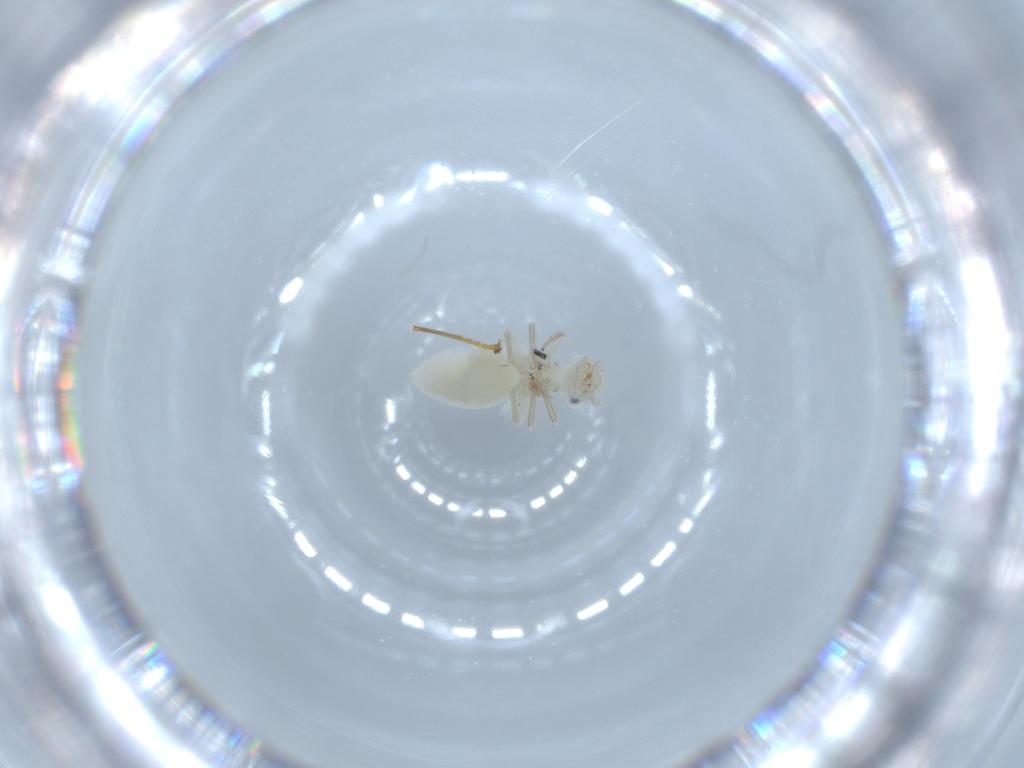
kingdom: Animalia
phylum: Arthropoda
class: Insecta
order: Psocodea
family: Caeciliusidae
